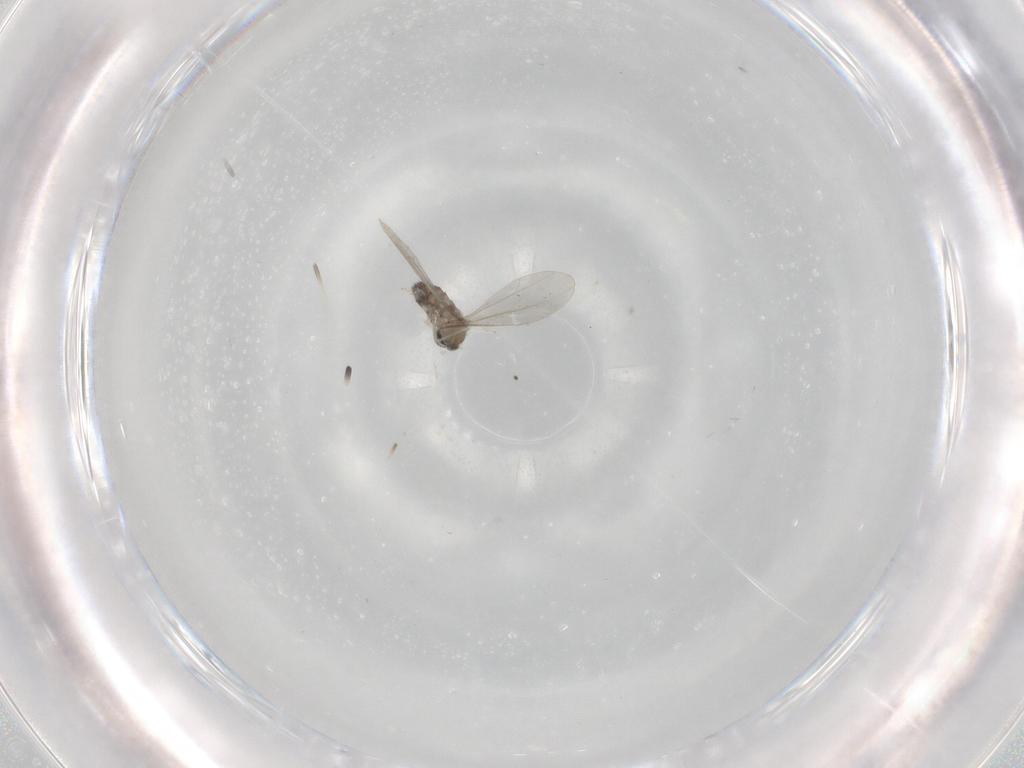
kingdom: Animalia
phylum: Arthropoda
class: Insecta
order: Diptera
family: Cecidomyiidae
